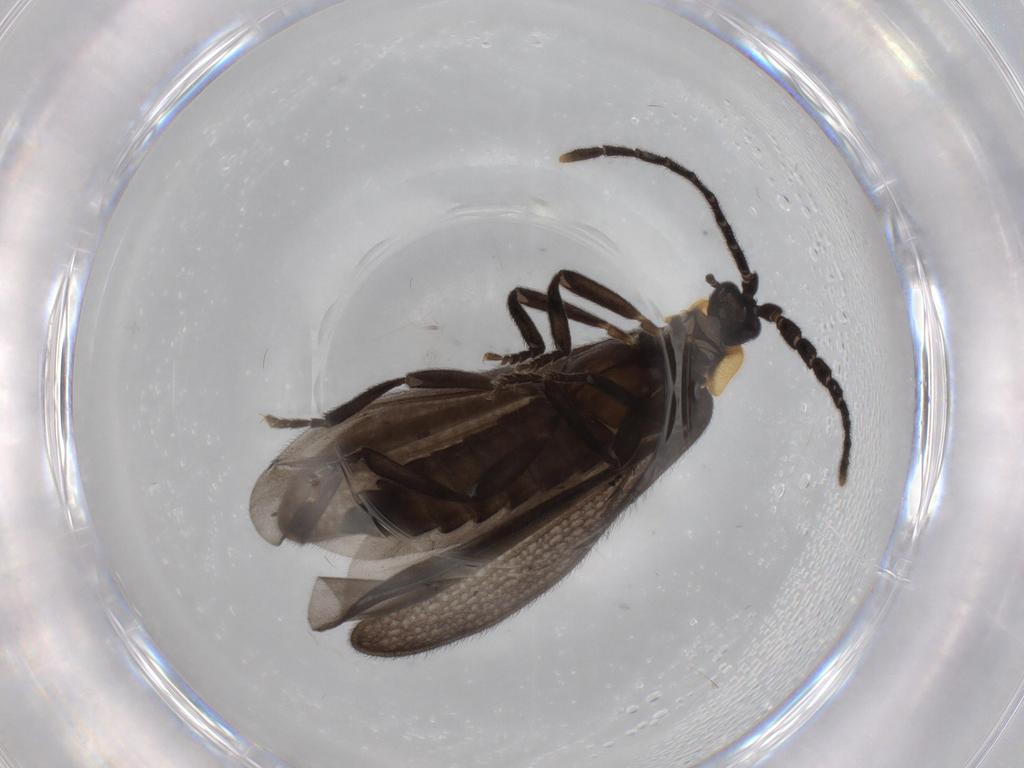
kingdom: Animalia
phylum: Arthropoda
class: Insecta
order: Coleoptera
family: Lycidae
